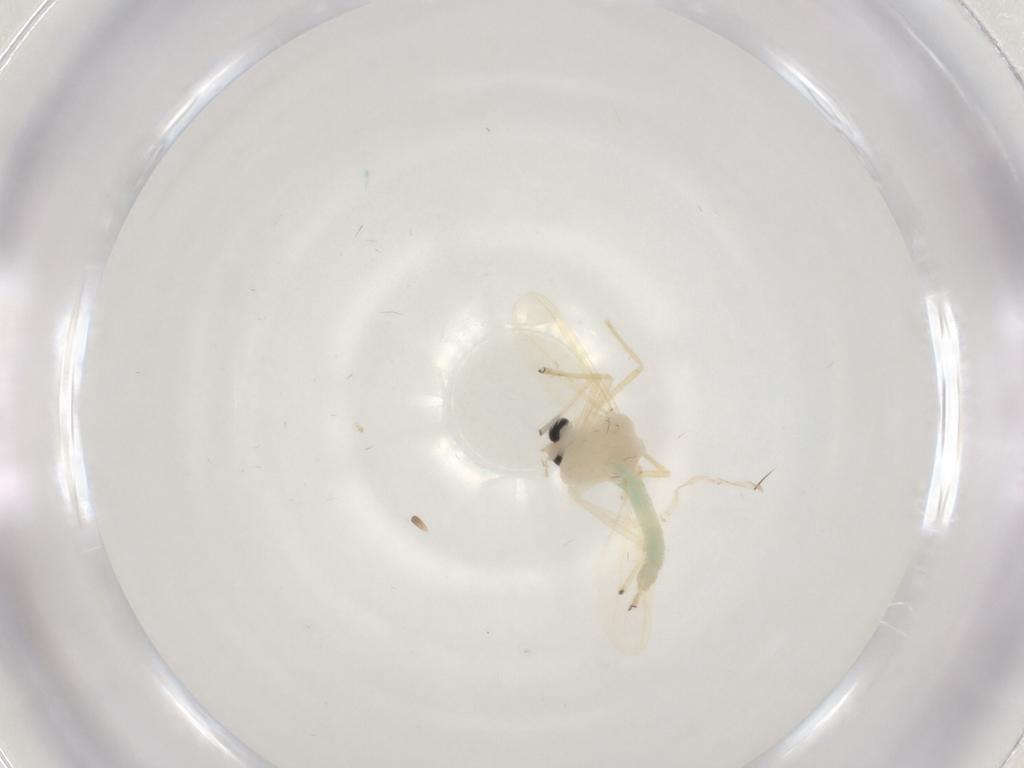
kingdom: Animalia
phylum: Arthropoda
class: Insecta
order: Diptera
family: Chironomidae
